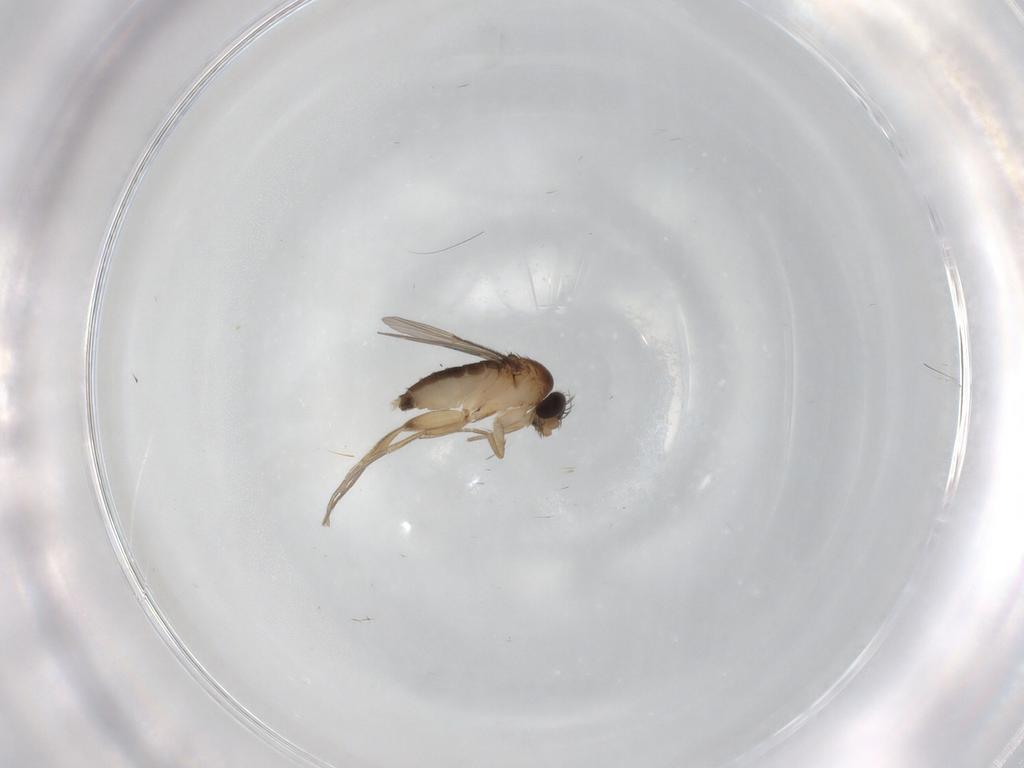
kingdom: Animalia
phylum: Arthropoda
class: Insecta
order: Diptera
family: Phoridae
